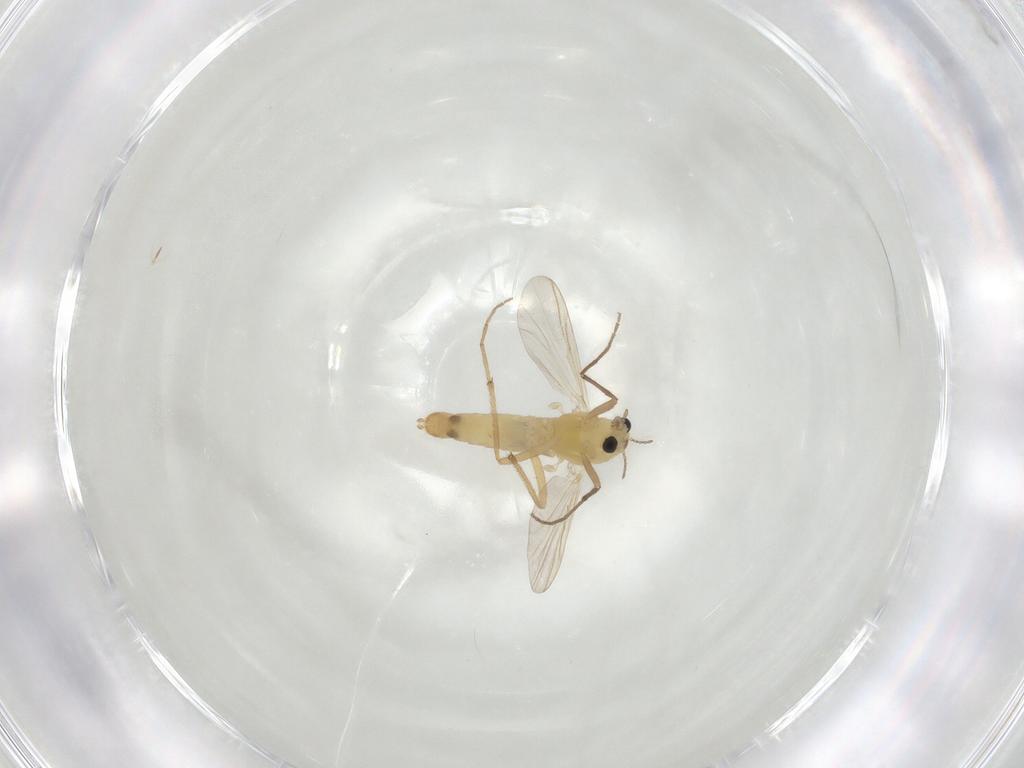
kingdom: Animalia
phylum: Arthropoda
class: Insecta
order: Diptera
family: Chironomidae
